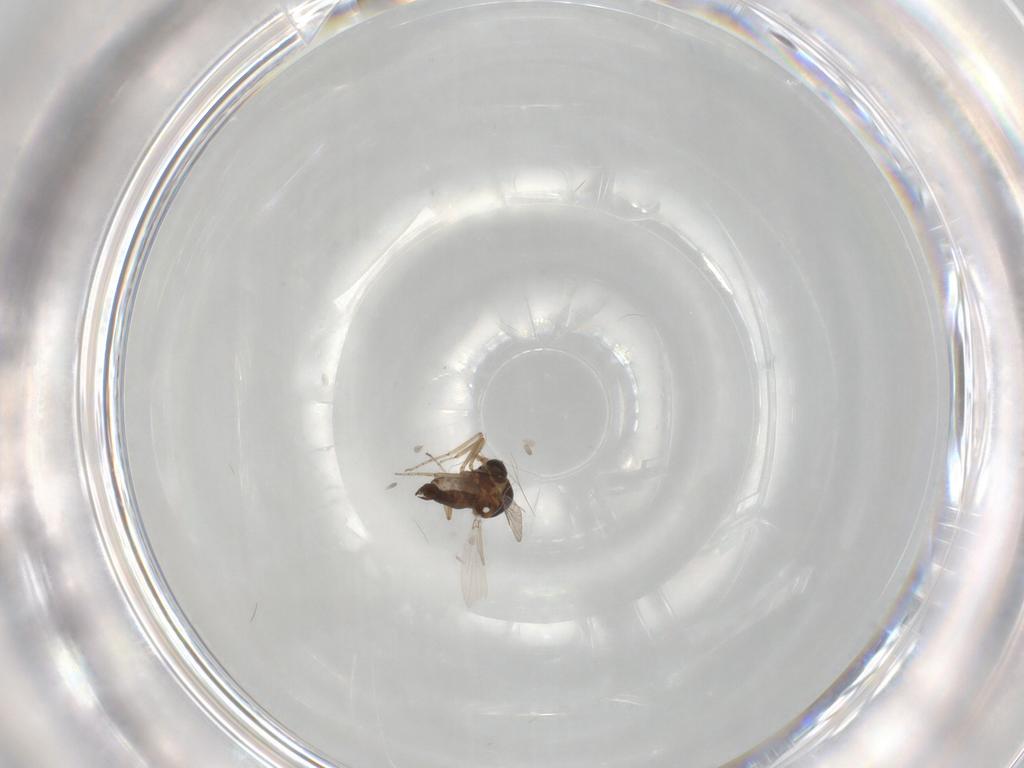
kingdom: Animalia
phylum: Arthropoda
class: Insecta
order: Diptera
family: Ceratopogonidae
